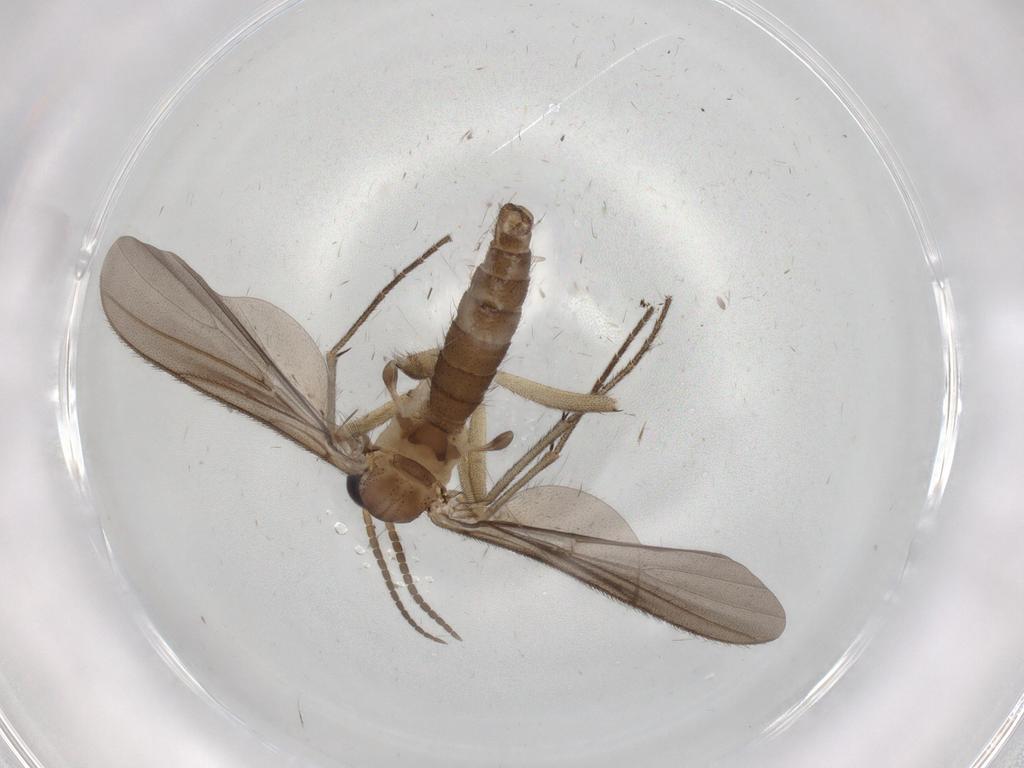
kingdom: Animalia
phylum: Arthropoda
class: Insecta
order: Diptera
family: Diadocidiidae
